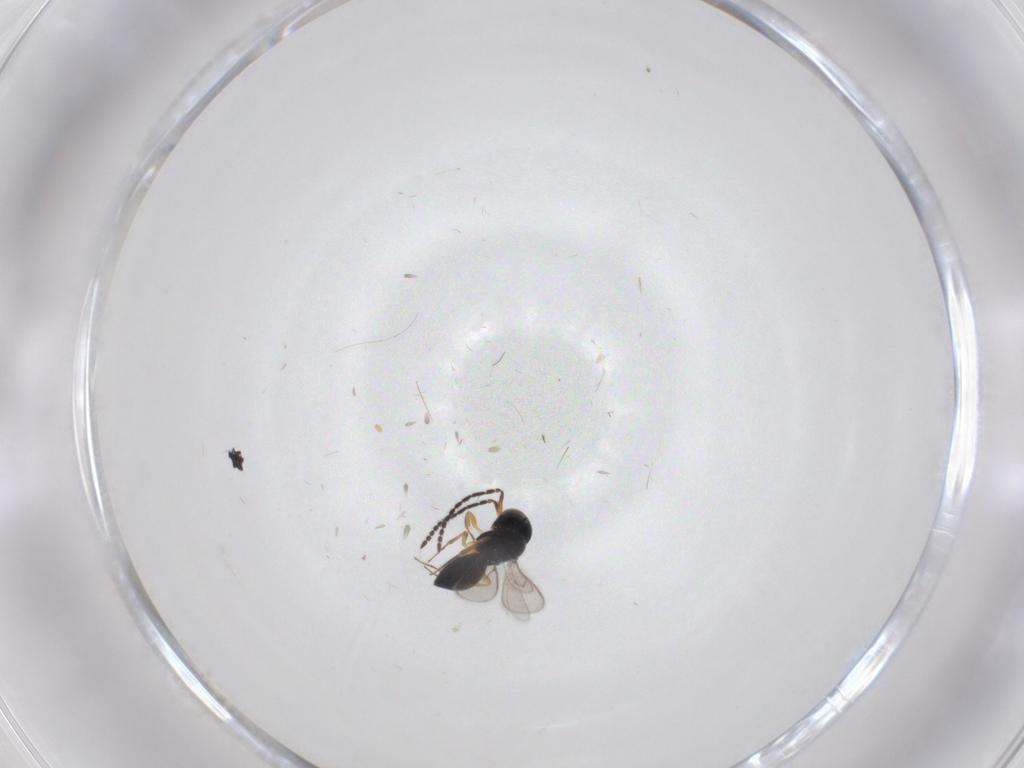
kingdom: Animalia
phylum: Arthropoda
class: Insecta
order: Hymenoptera
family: Scelionidae
